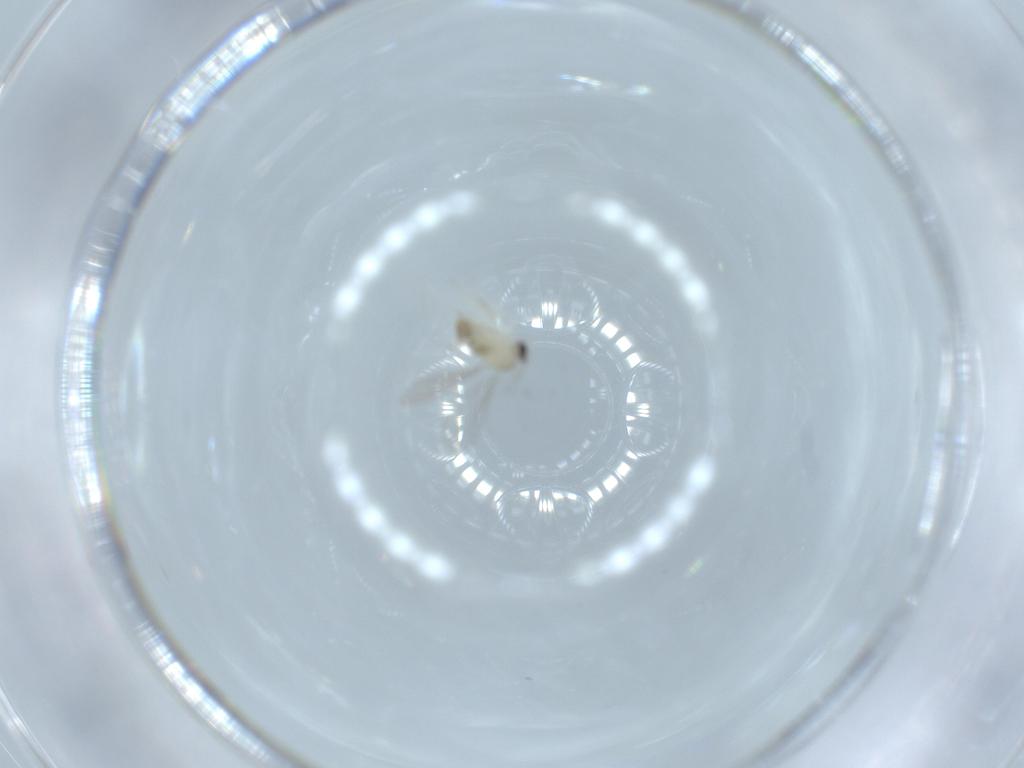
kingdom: Animalia
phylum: Arthropoda
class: Insecta
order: Diptera
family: Cecidomyiidae
